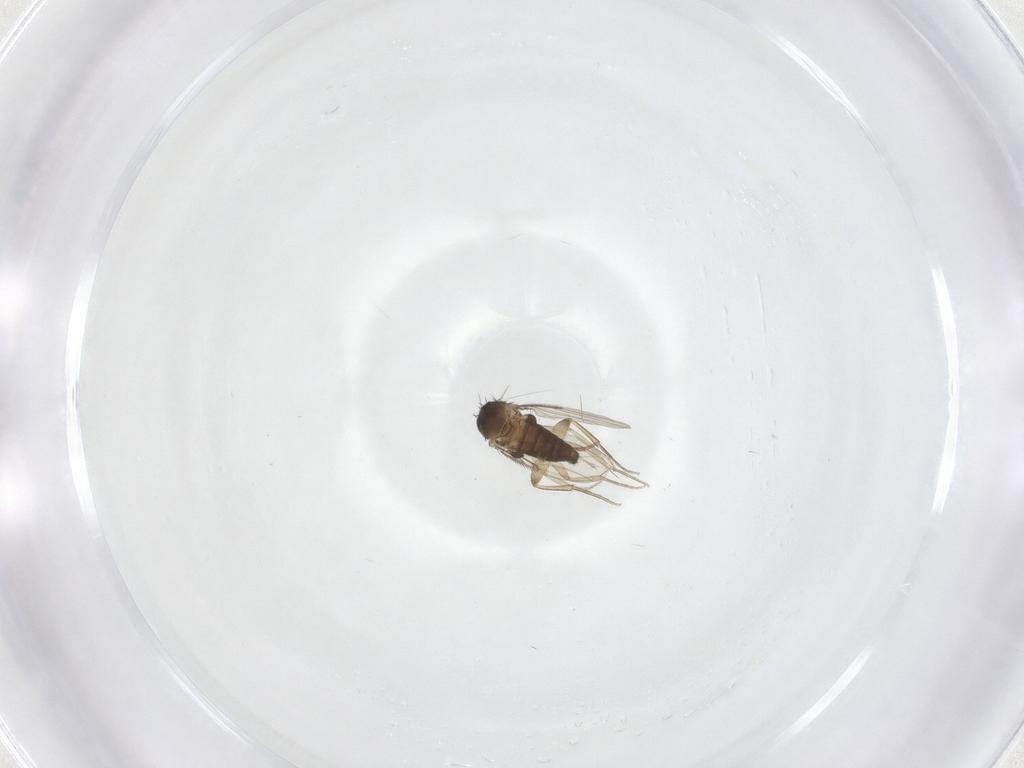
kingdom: Animalia
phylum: Arthropoda
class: Insecta
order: Diptera
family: Phoridae
